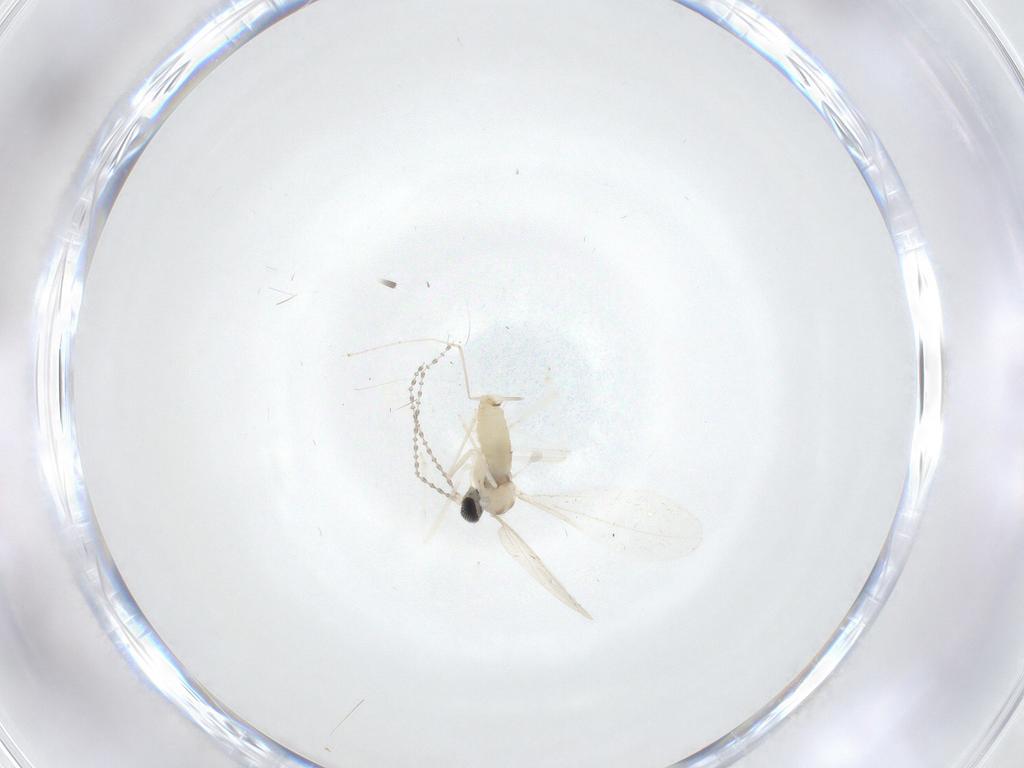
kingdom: Animalia
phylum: Arthropoda
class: Insecta
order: Diptera
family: Cecidomyiidae
